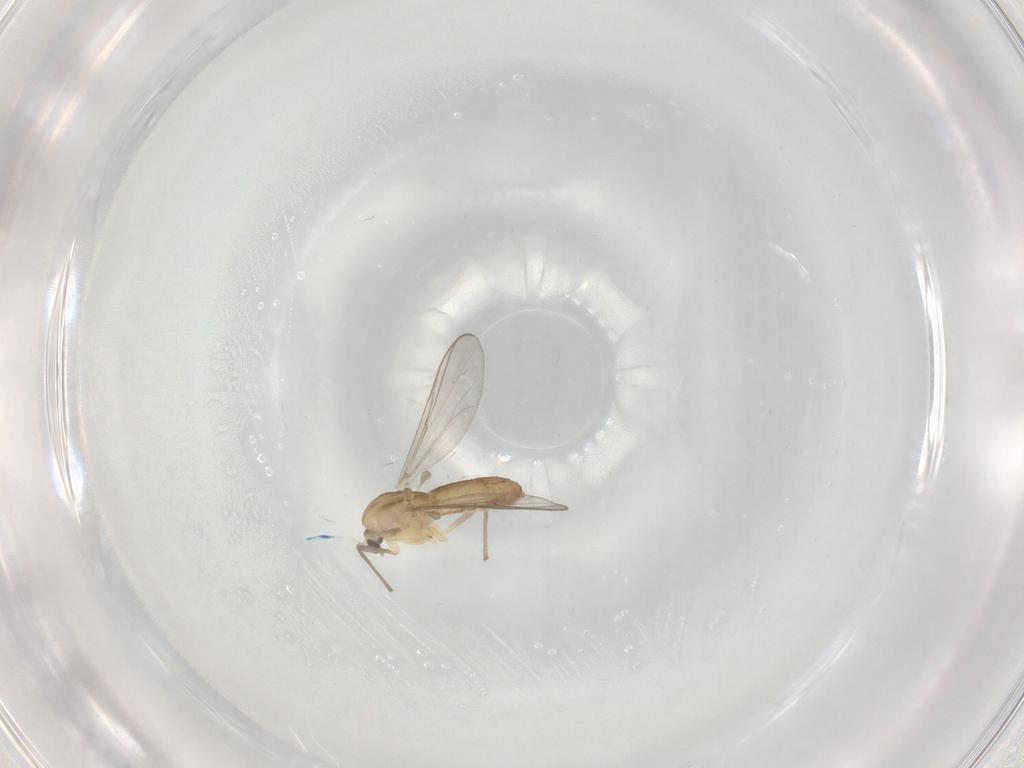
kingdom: Animalia
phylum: Arthropoda
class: Insecta
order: Diptera
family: Chironomidae
